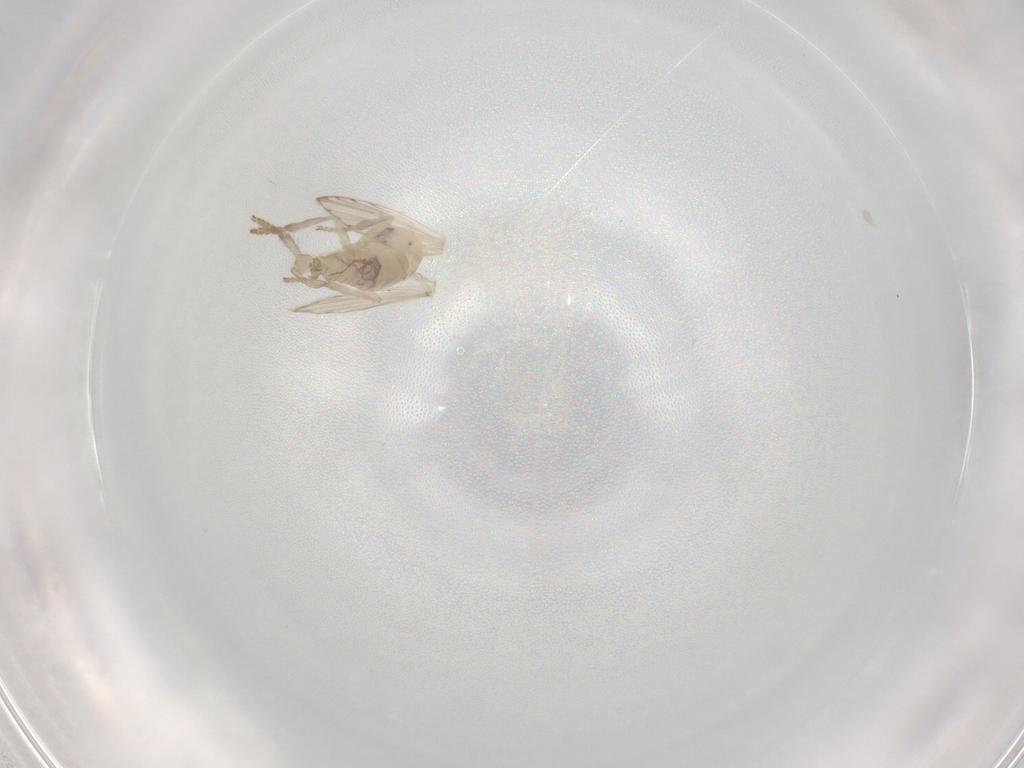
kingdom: Animalia
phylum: Arthropoda
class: Insecta
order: Diptera
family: Psychodidae
